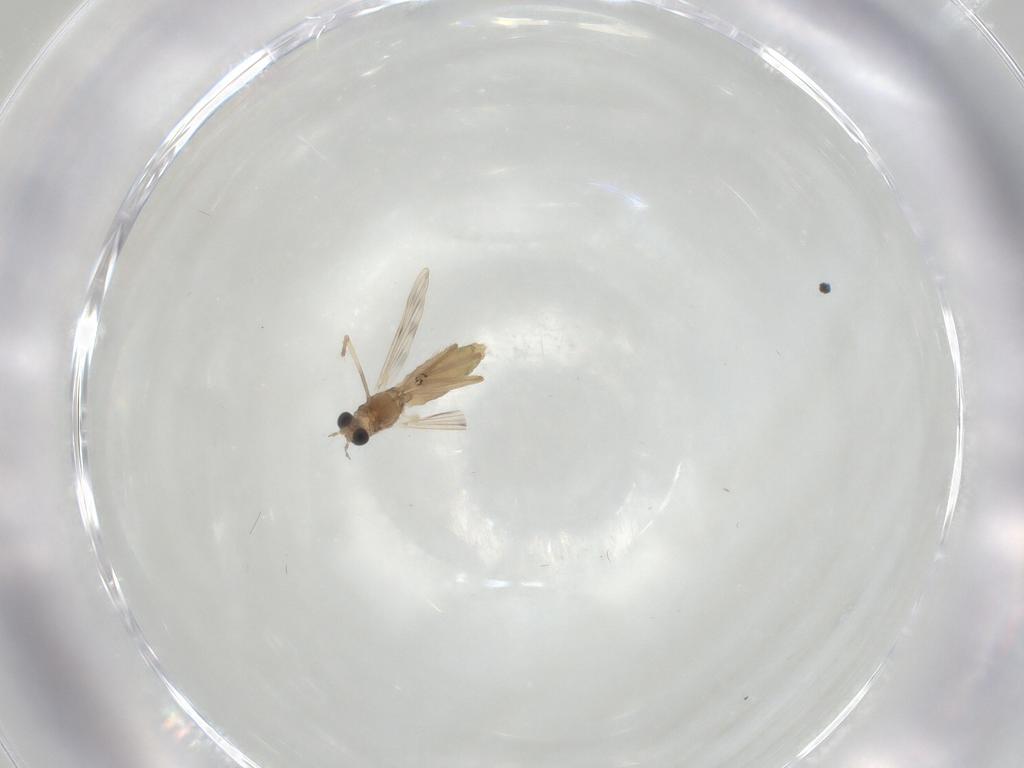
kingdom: Animalia
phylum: Arthropoda
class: Insecta
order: Diptera
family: Chironomidae
